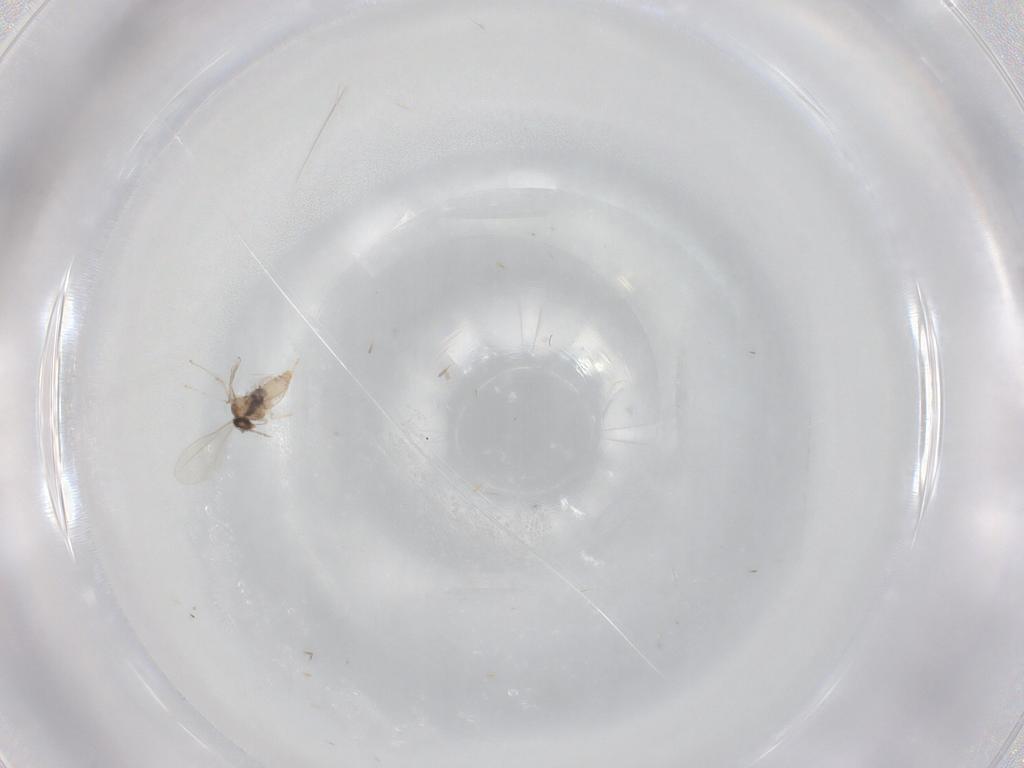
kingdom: Animalia
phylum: Arthropoda
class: Insecta
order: Diptera
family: Cecidomyiidae
